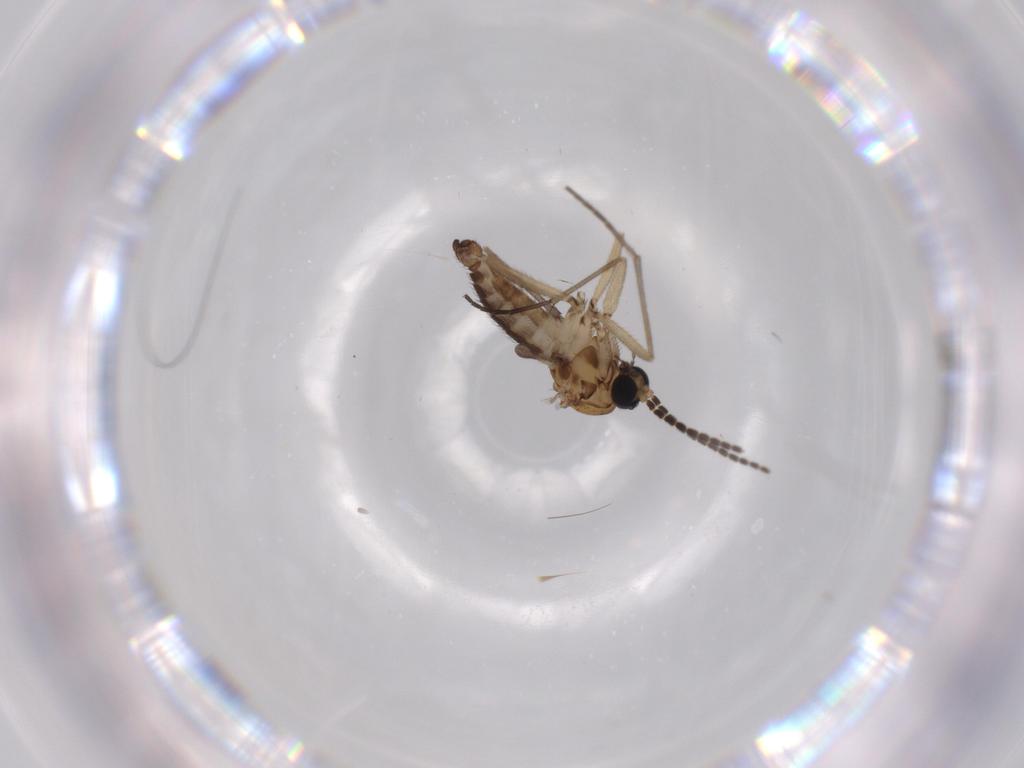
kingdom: Animalia
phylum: Arthropoda
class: Insecta
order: Diptera
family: Sciaridae
